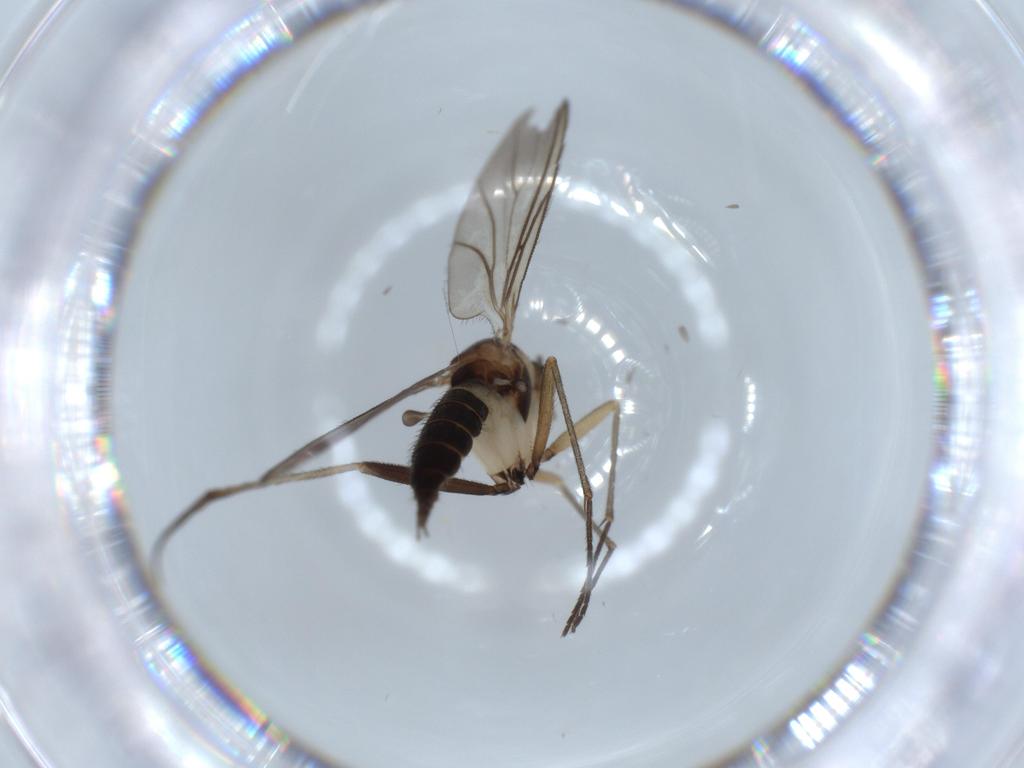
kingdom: Animalia
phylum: Arthropoda
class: Insecta
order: Diptera
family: Sciaridae
